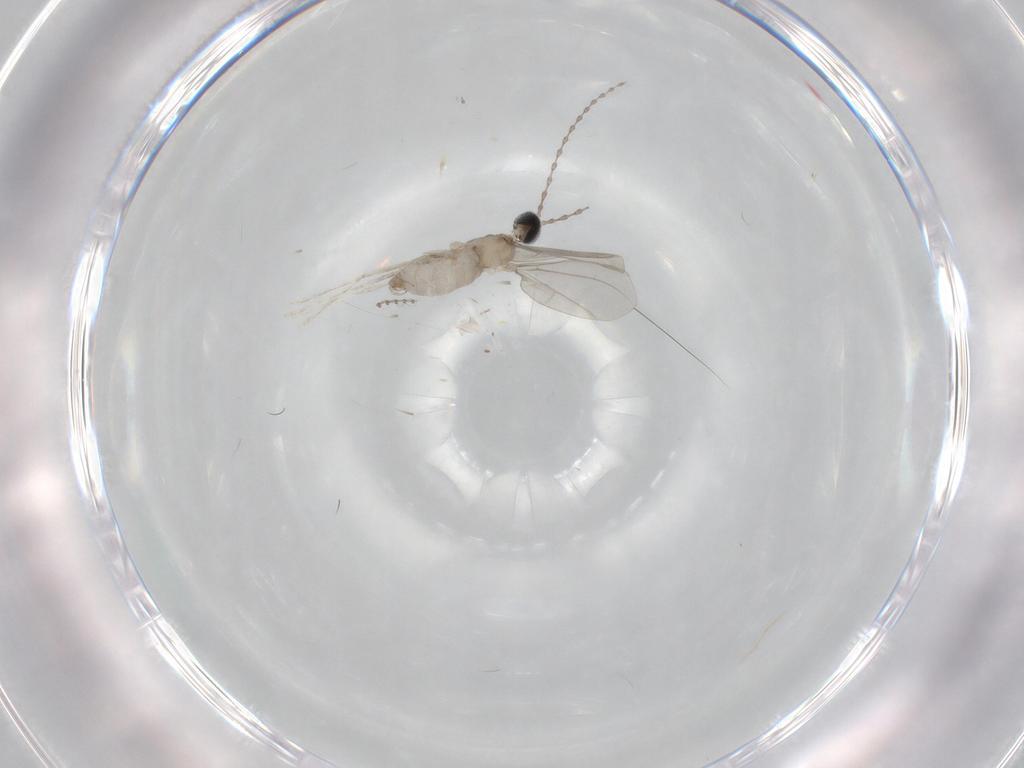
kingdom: Animalia
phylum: Arthropoda
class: Insecta
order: Diptera
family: Cecidomyiidae
